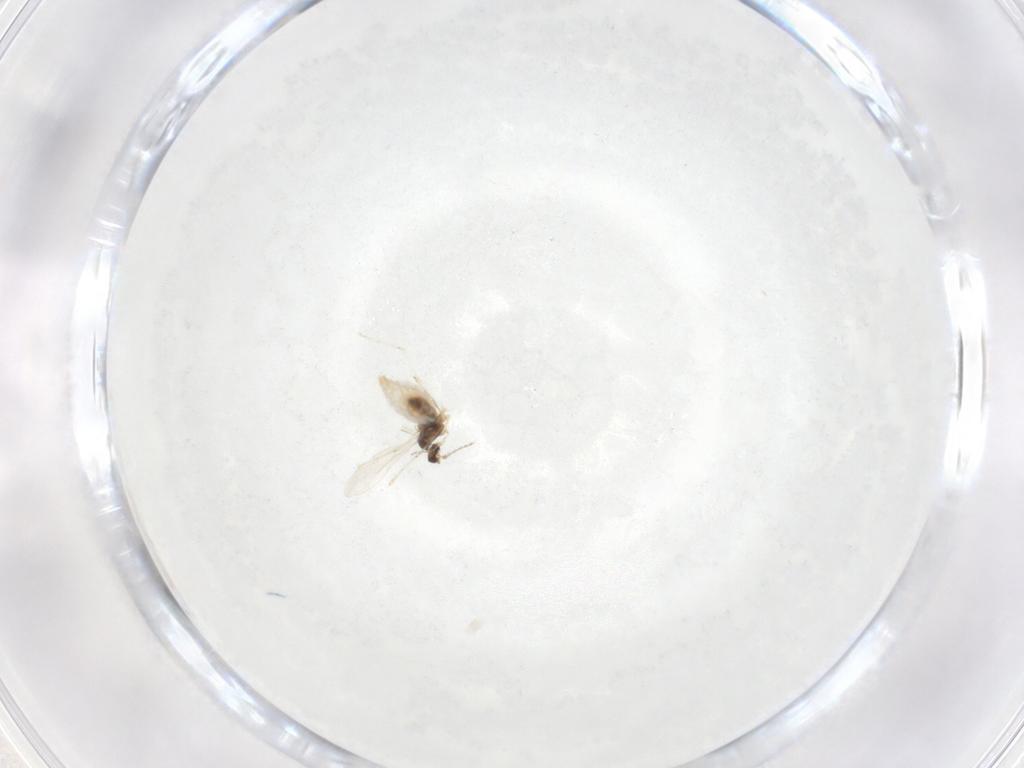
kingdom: Animalia
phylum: Arthropoda
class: Insecta
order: Diptera
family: Cecidomyiidae
